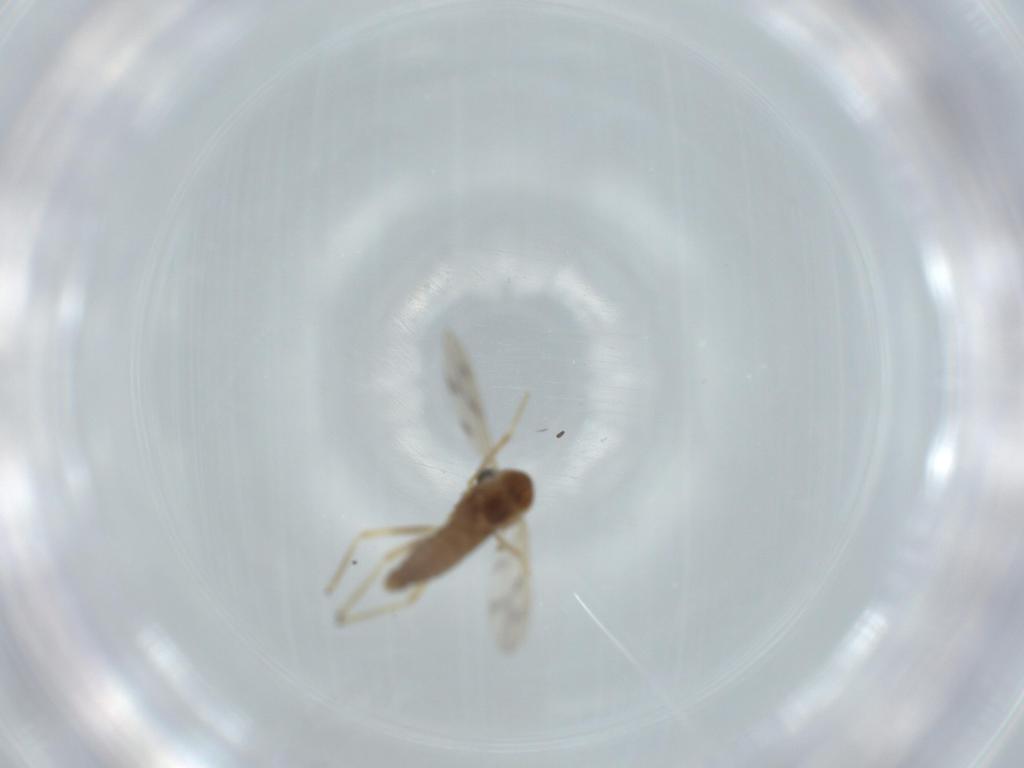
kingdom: Animalia
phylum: Arthropoda
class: Insecta
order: Diptera
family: Chironomidae
